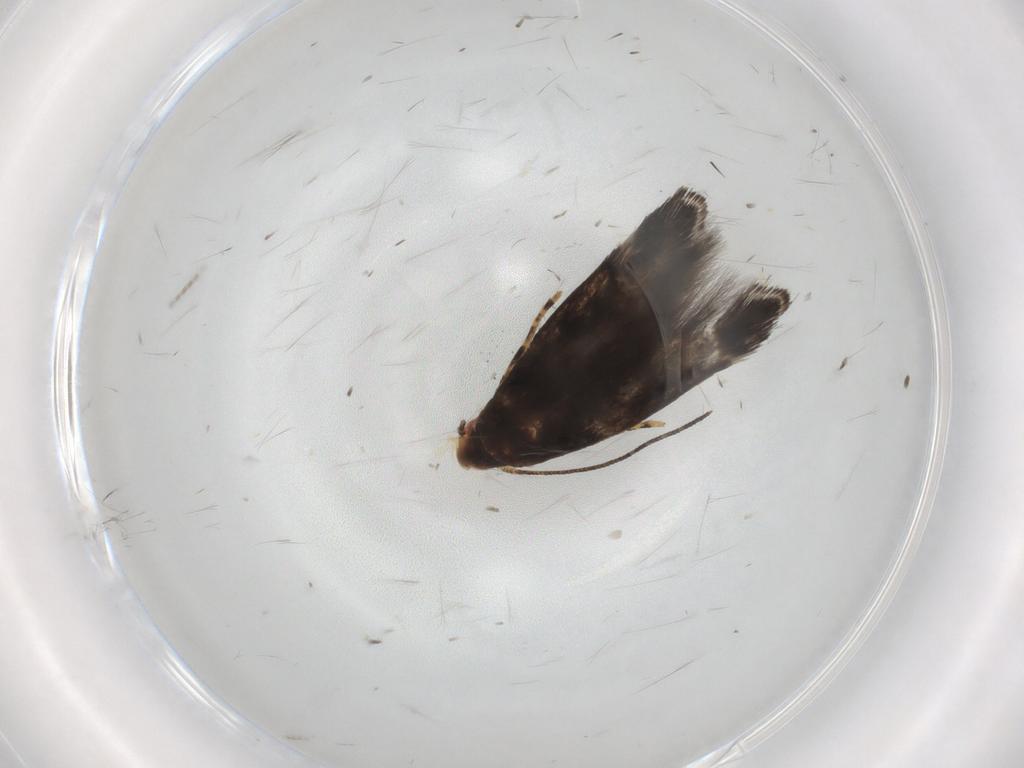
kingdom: Animalia
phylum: Arthropoda
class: Insecta
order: Lepidoptera
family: Momphidae
